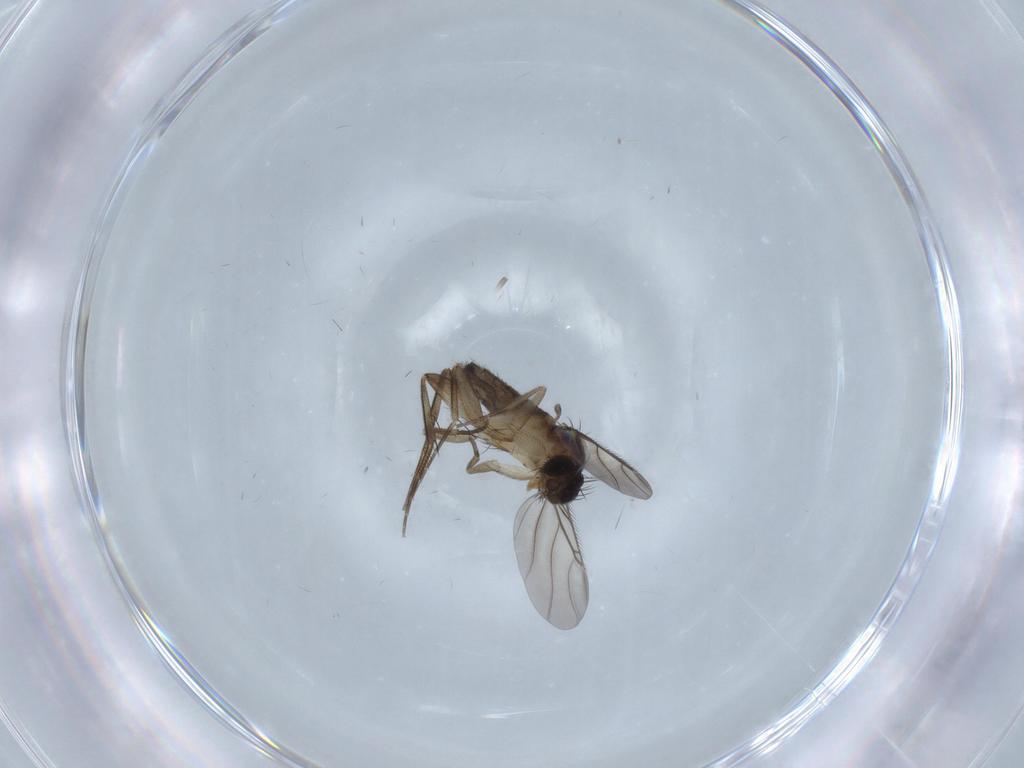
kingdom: Animalia
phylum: Arthropoda
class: Insecta
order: Diptera
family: Phoridae
